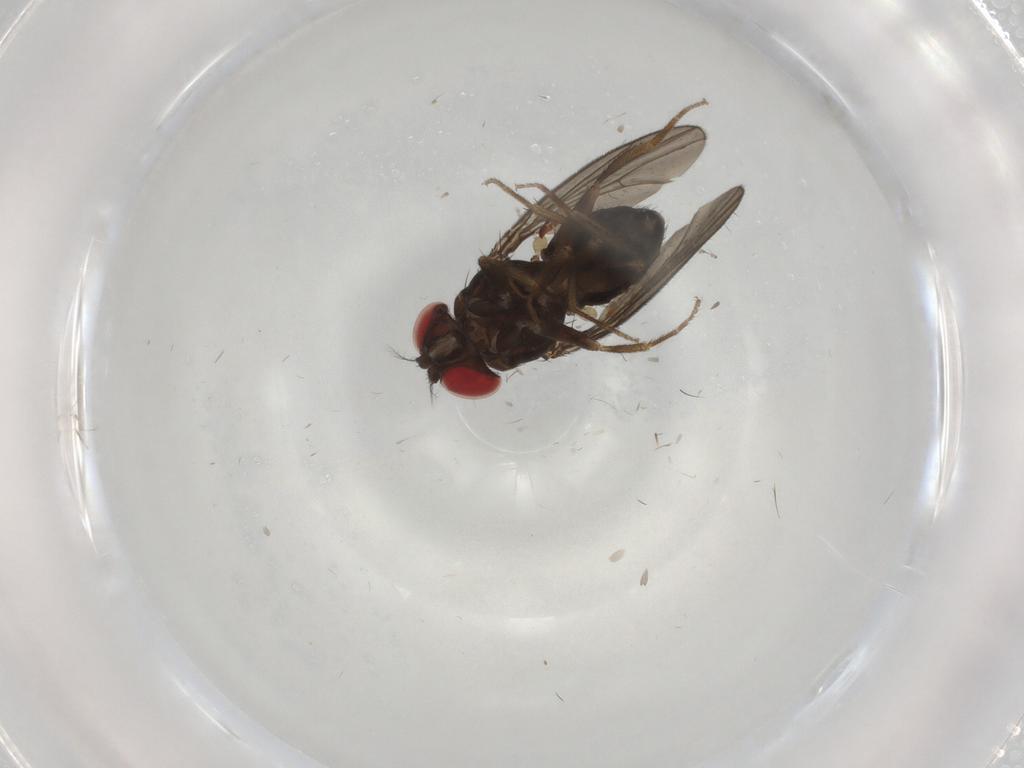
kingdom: Animalia
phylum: Arthropoda
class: Insecta
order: Diptera
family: Drosophilidae
